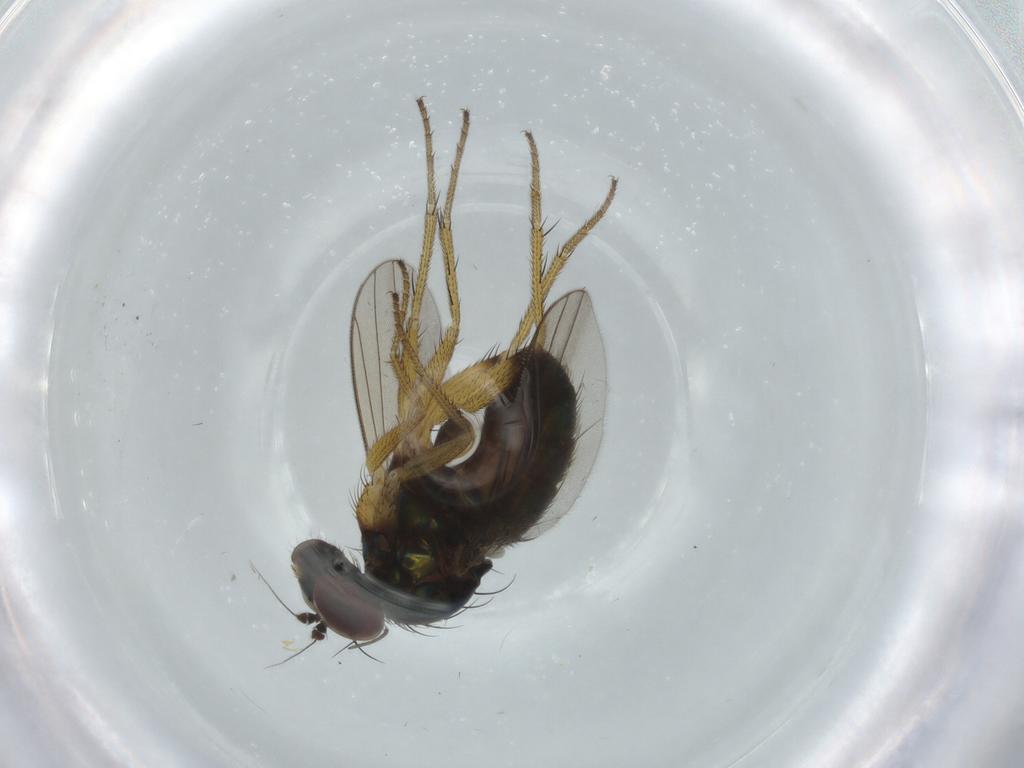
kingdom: Animalia
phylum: Arthropoda
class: Insecta
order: Diptera
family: Dolichopodidae
